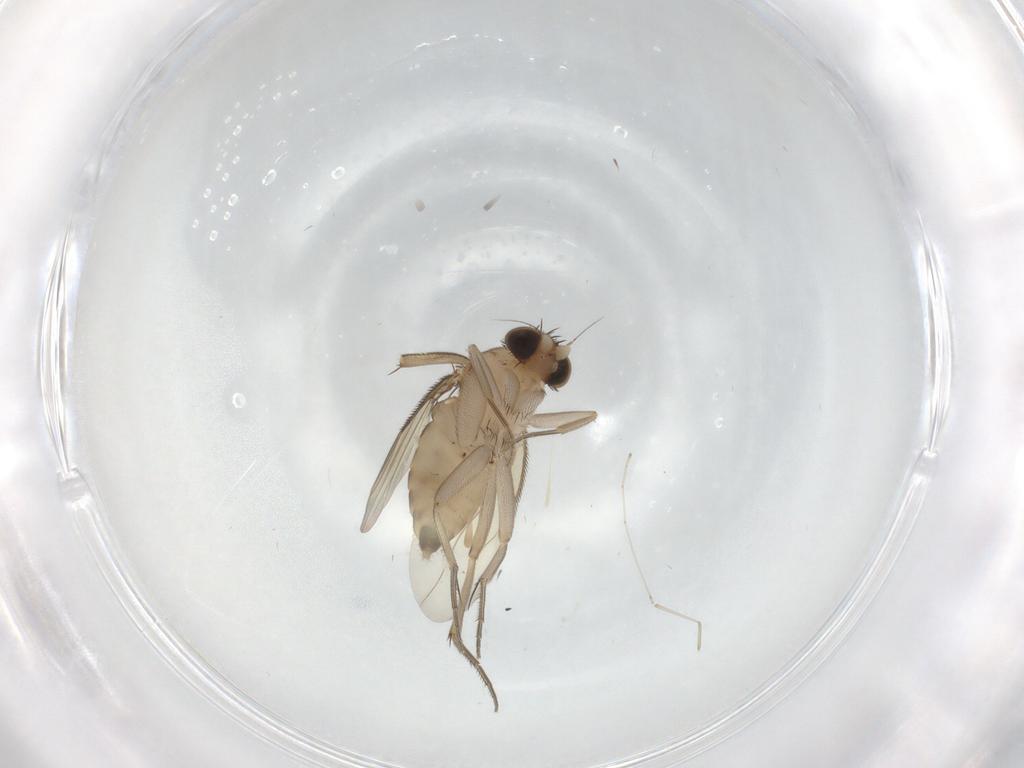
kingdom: Animalia
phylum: Arthropoda
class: Insecta
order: Diptera
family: Phoridae
